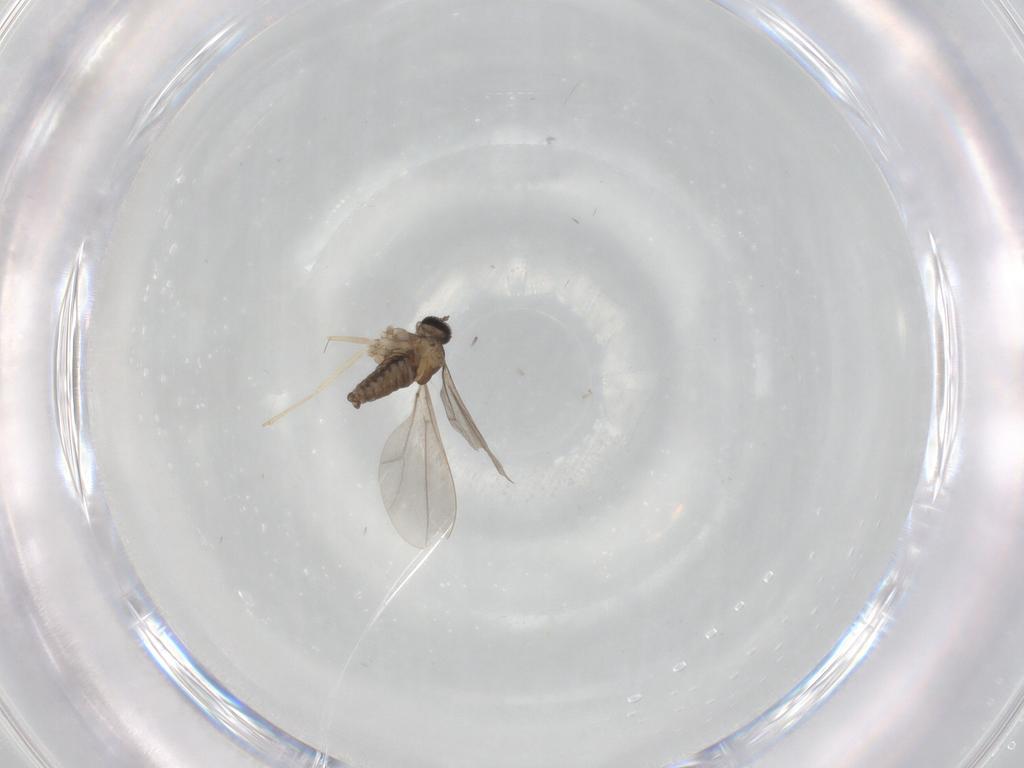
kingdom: Animalia
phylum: Arthropoda
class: Insecta
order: Diptera
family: Cecidomyiidae
